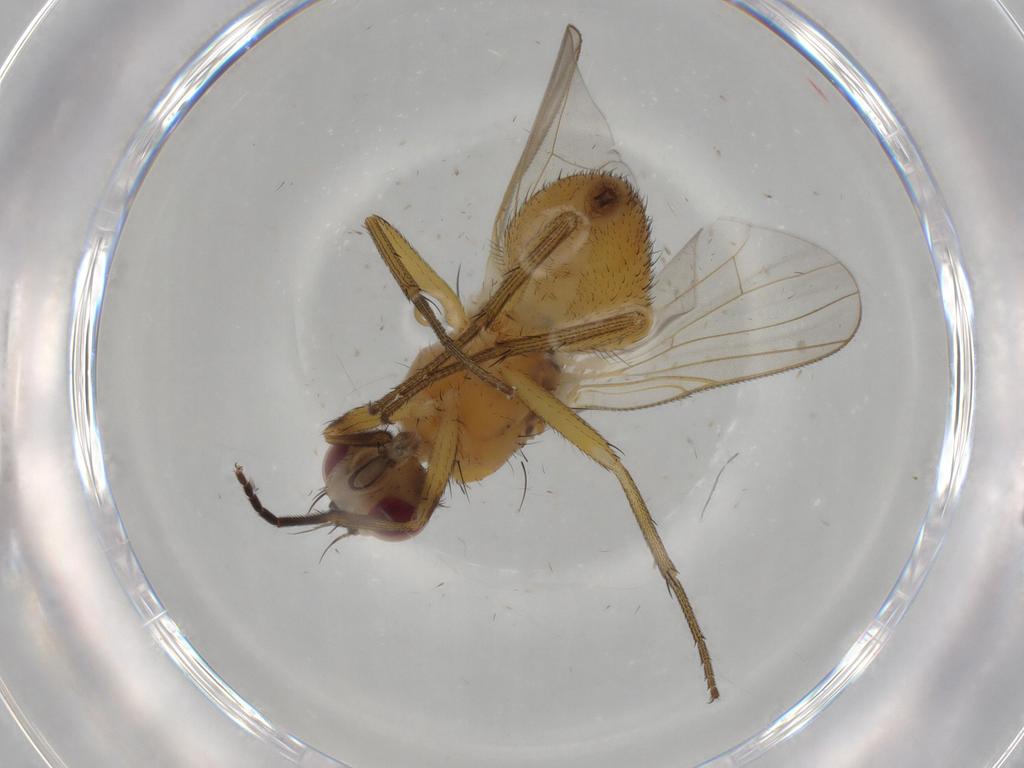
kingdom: Animalia
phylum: Arthropoda
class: Insecta
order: Diptera
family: Muscidae
